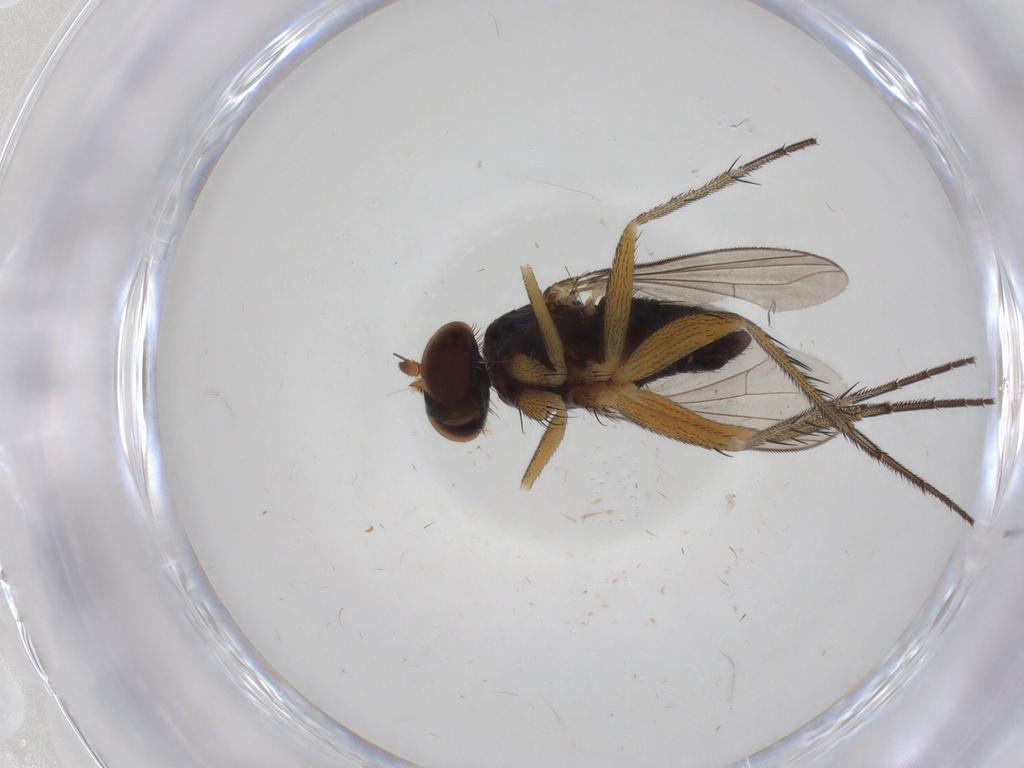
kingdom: Animalia
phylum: Arthropoda
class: Insecta
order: Diptera
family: Dolichopodidae
